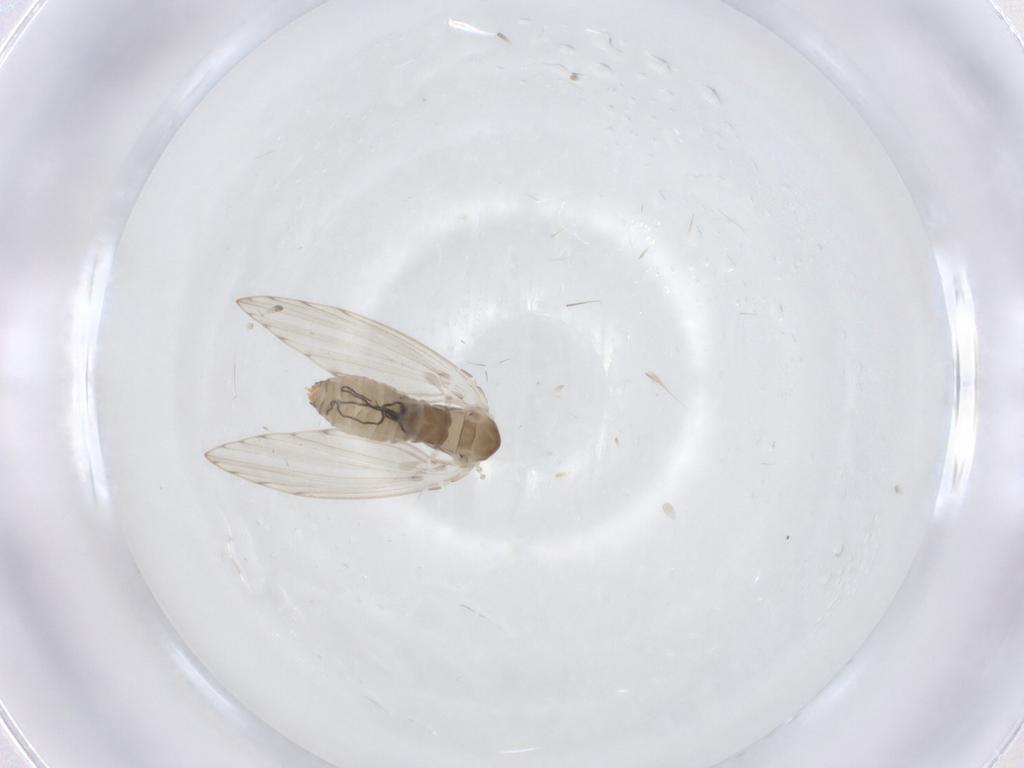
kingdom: Animalia
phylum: Arthropoda
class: Insecta
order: Diptera
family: Psychodidae
